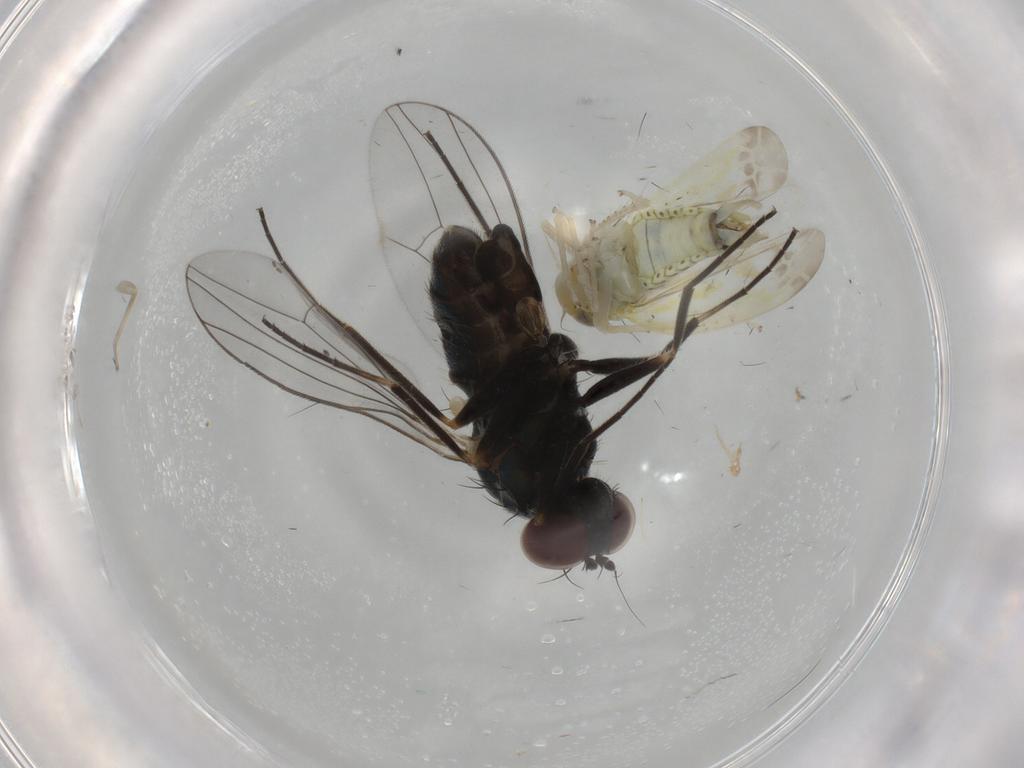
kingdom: Animalia
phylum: Arthropoda
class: Insecta
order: Diptera
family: Dolichopodidae
